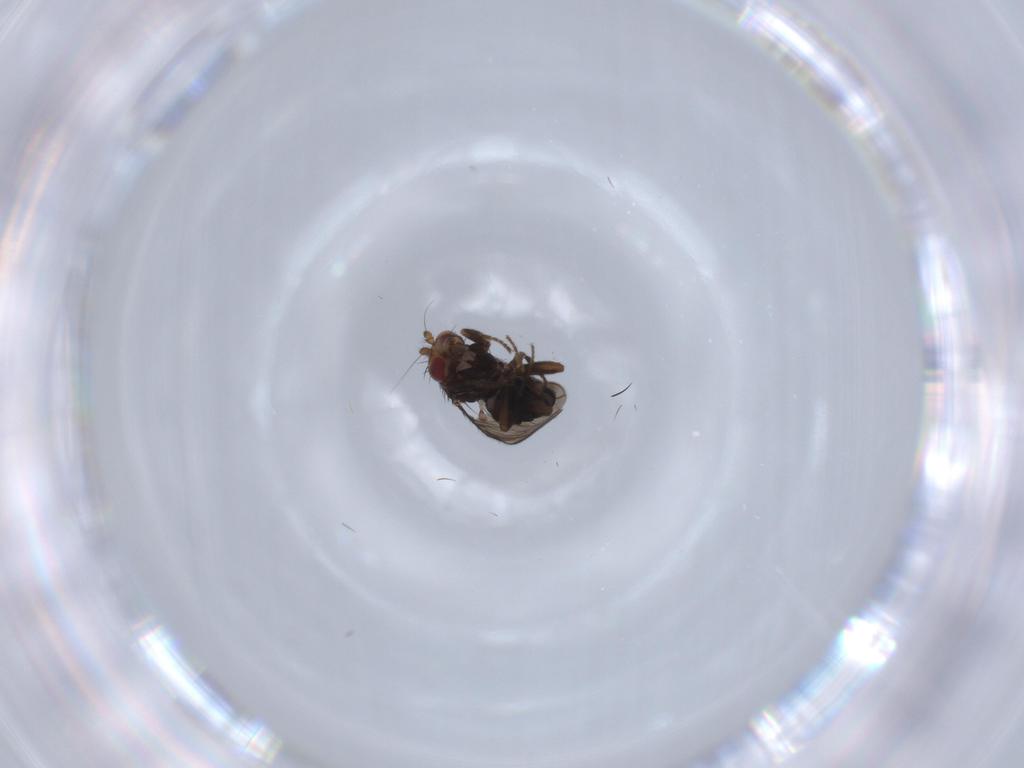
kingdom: Animalia
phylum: Arthropoda
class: Insecta
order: Diptera
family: Sphaeroceridae
